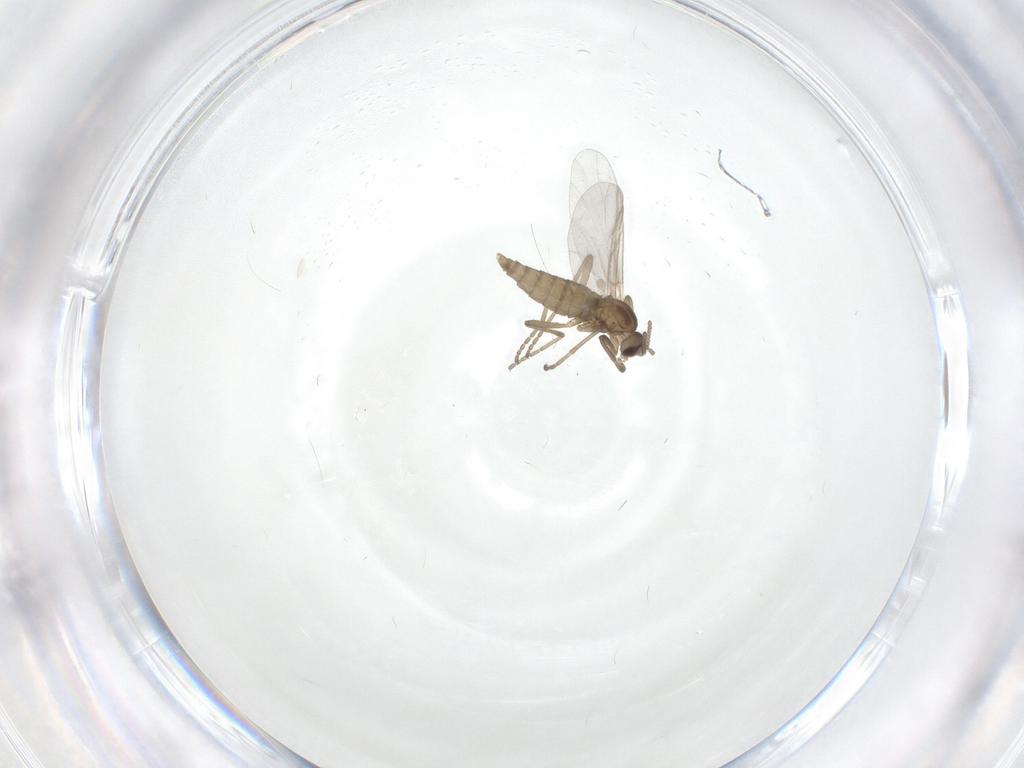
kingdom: Animalia
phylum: Arthropoda
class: Insecta
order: Diptera
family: Cecidomyiidae
